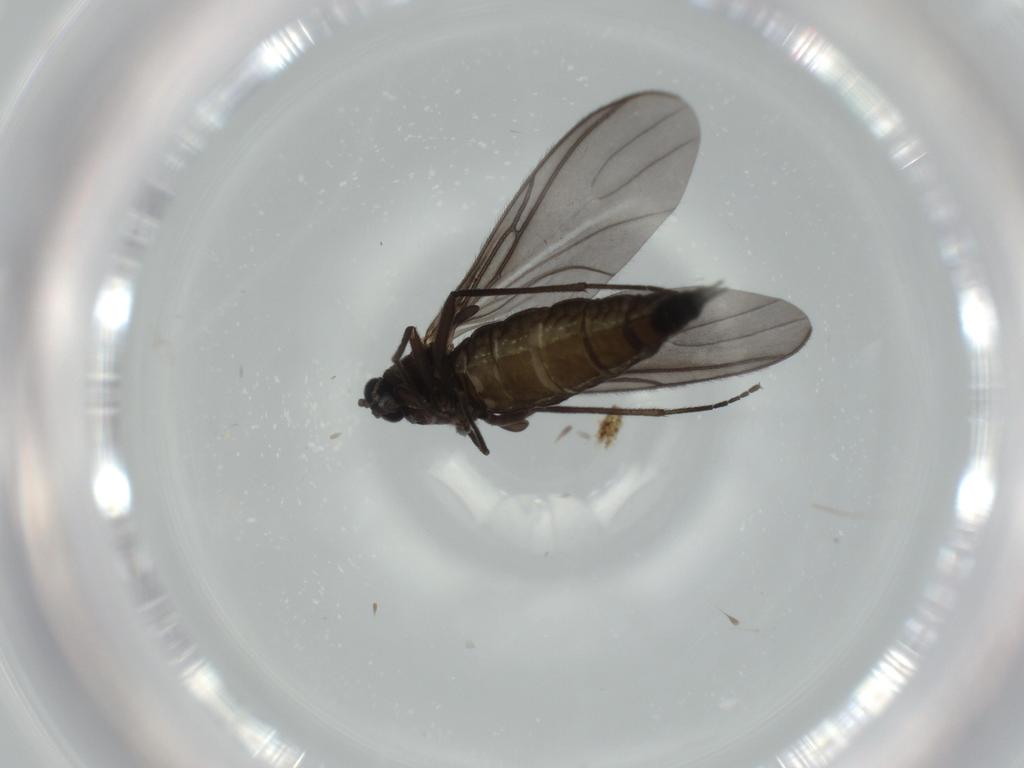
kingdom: Animalia
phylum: Arthropoda
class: Insecta
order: Diptera
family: Sciaridae
